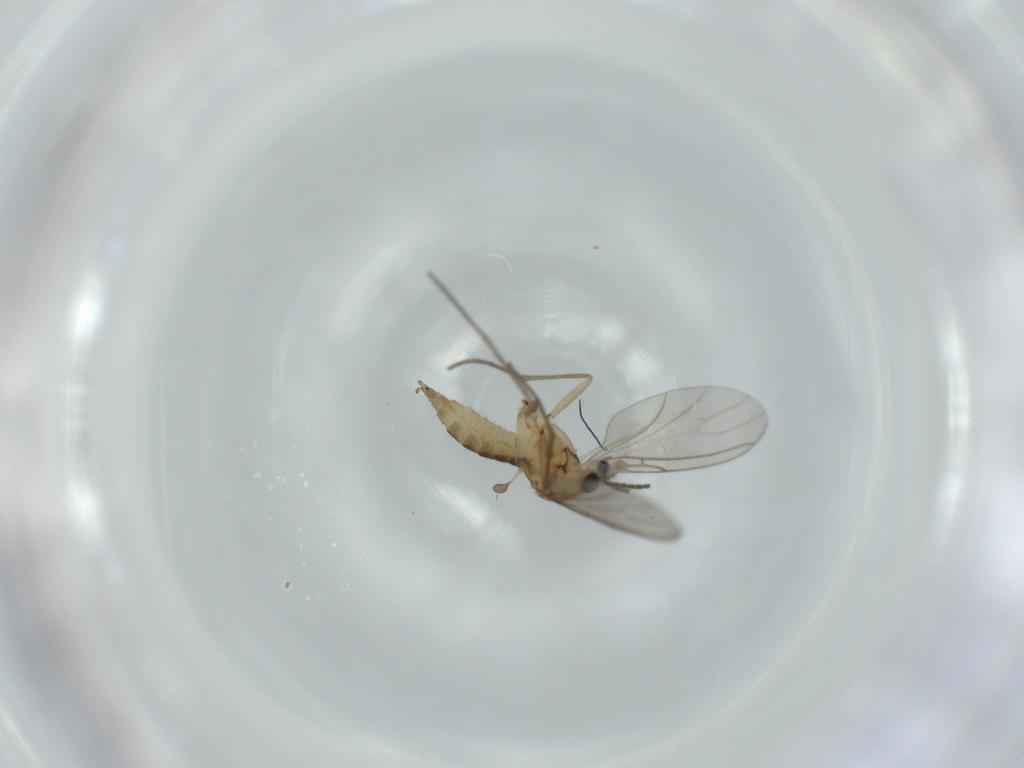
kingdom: Animalia
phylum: Arthropoda
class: Insecta
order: Diptera
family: Sciaridae
